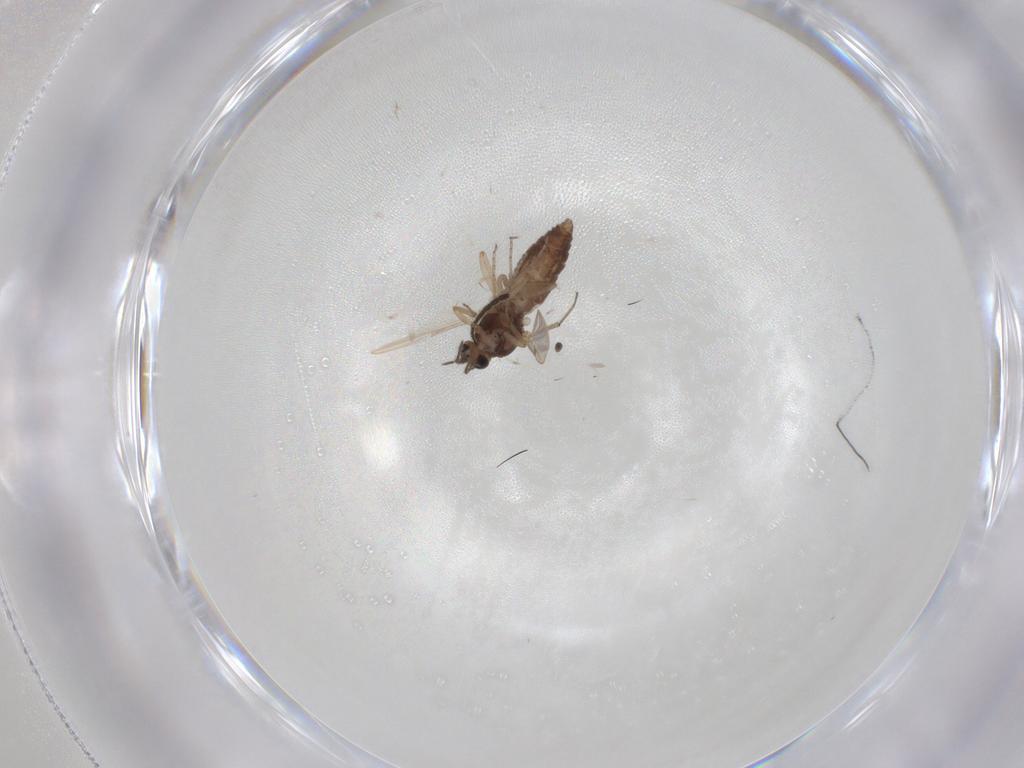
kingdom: Animalia
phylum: Arthropoda
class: Insecta
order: Diptera
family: Ceratopogonidae
